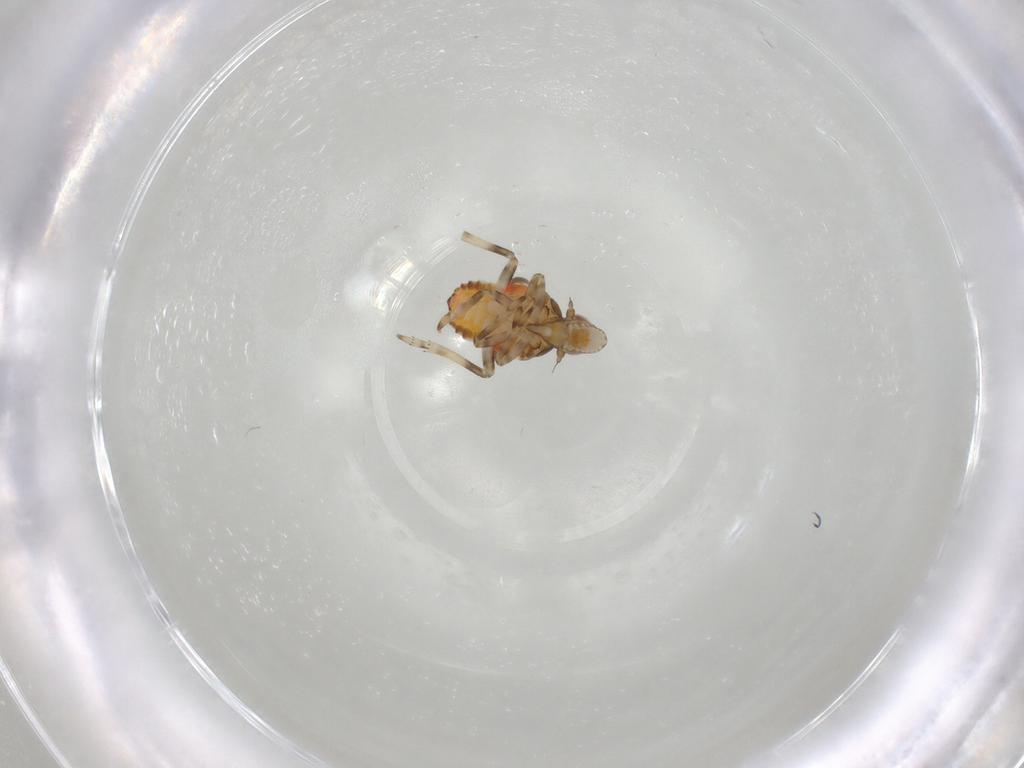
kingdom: Animalia
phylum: Arthropoda
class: Insecta
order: Hemiptera
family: Tropiduchidae
